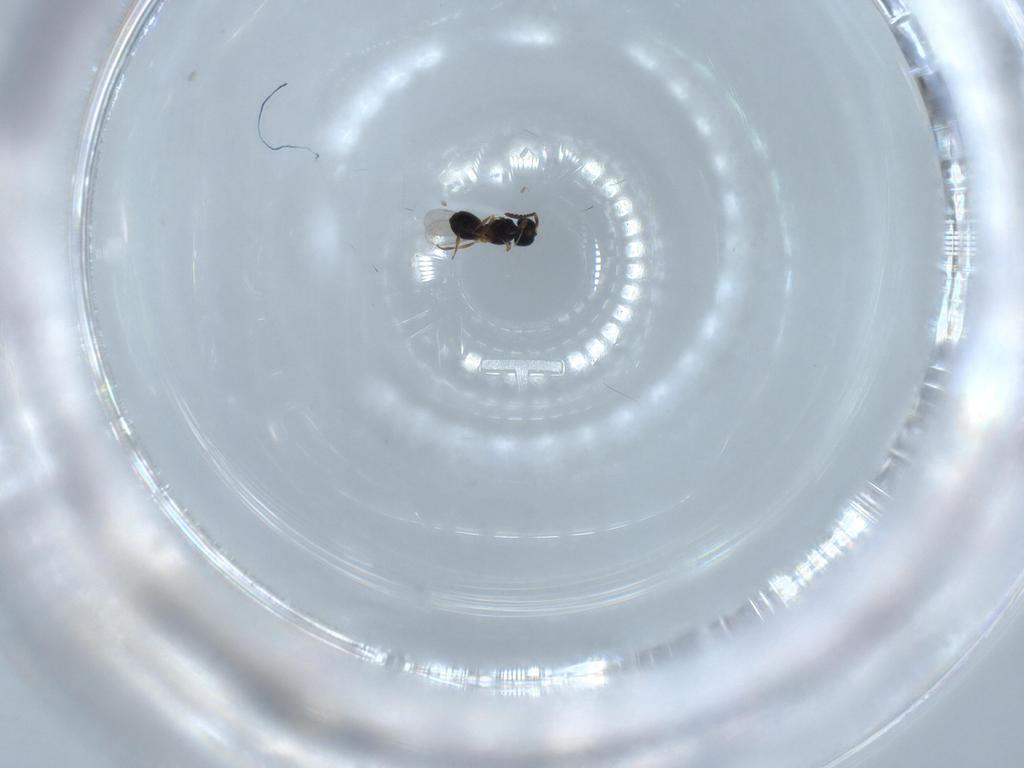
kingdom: Animalia
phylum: Arthropoda
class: Insecta
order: Hymenoptera
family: Scelionidae
